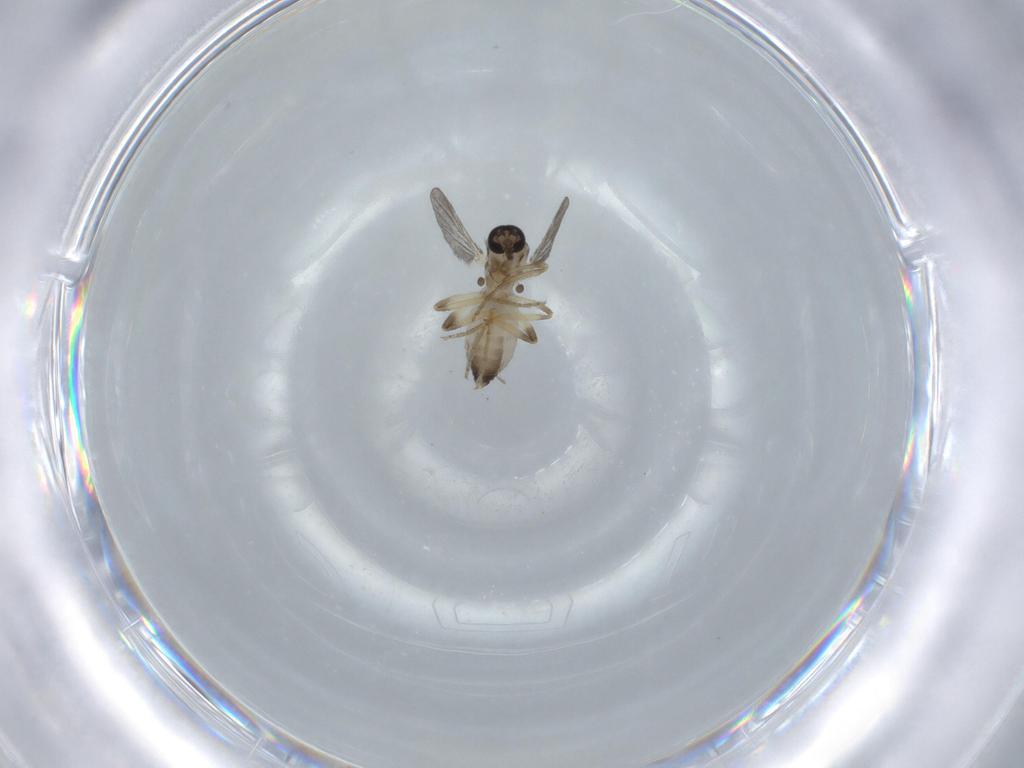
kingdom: Animalia
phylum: Arthropoda
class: Insecta
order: Diptera
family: Ceratopogonidae
